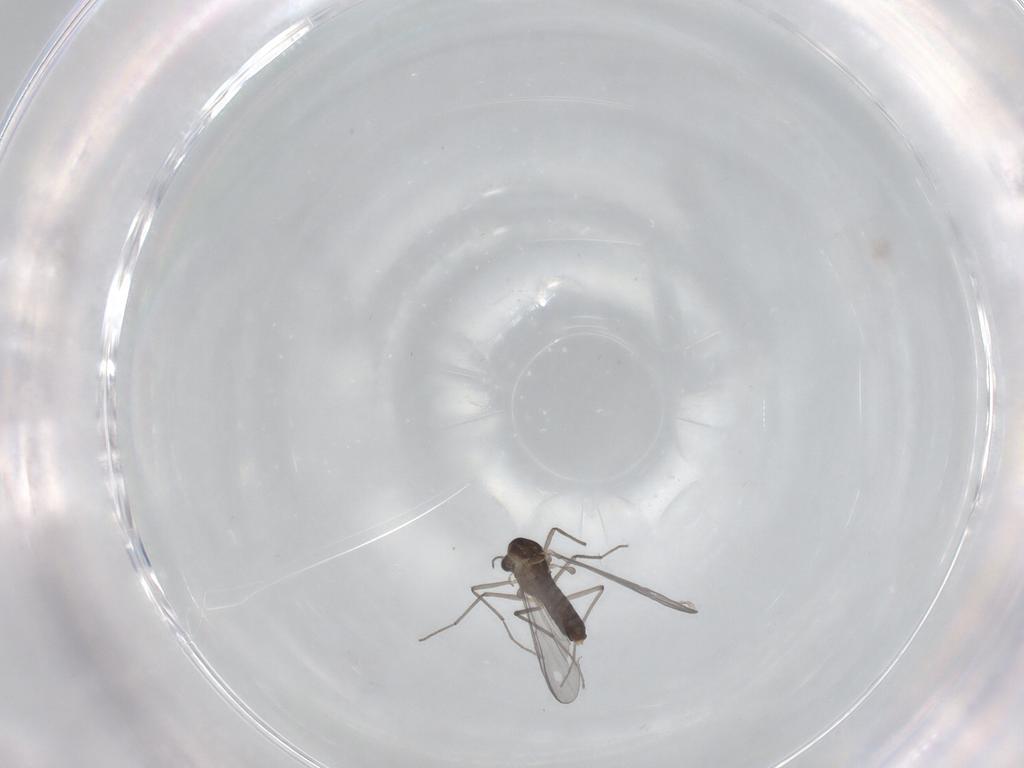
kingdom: Animalia
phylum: Arthropoda
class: Insecta
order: Diptera
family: Chironomidae
